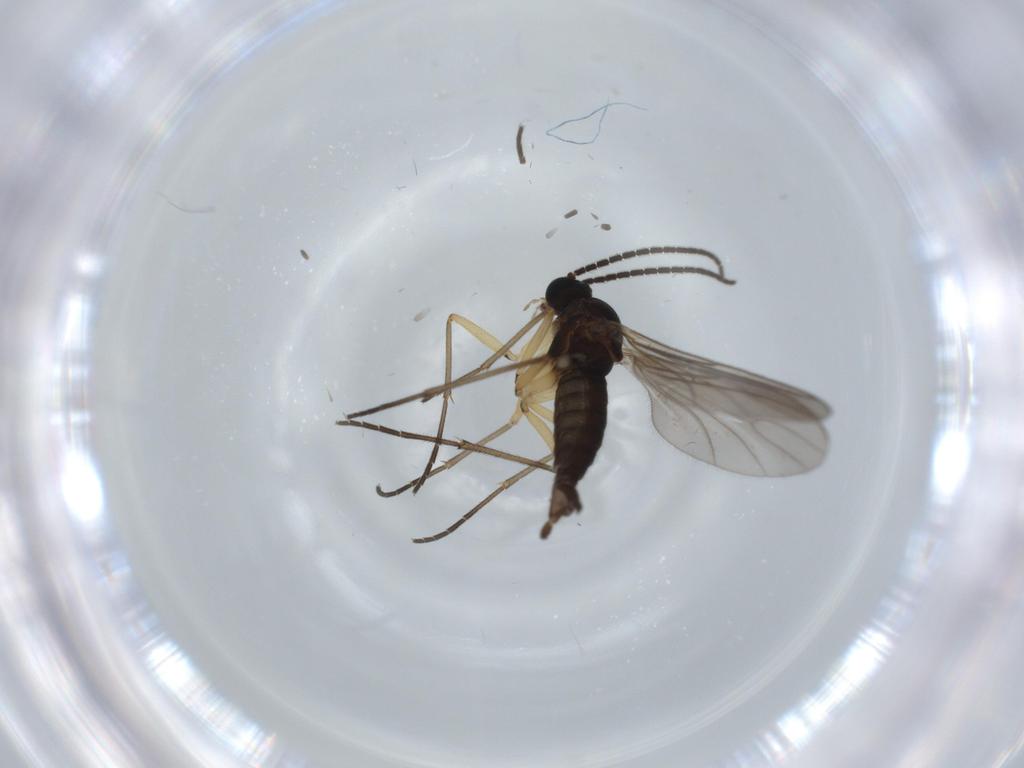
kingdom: Animalia
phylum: Arthropoda
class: Insecta
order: Diptera
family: Sciaridae
